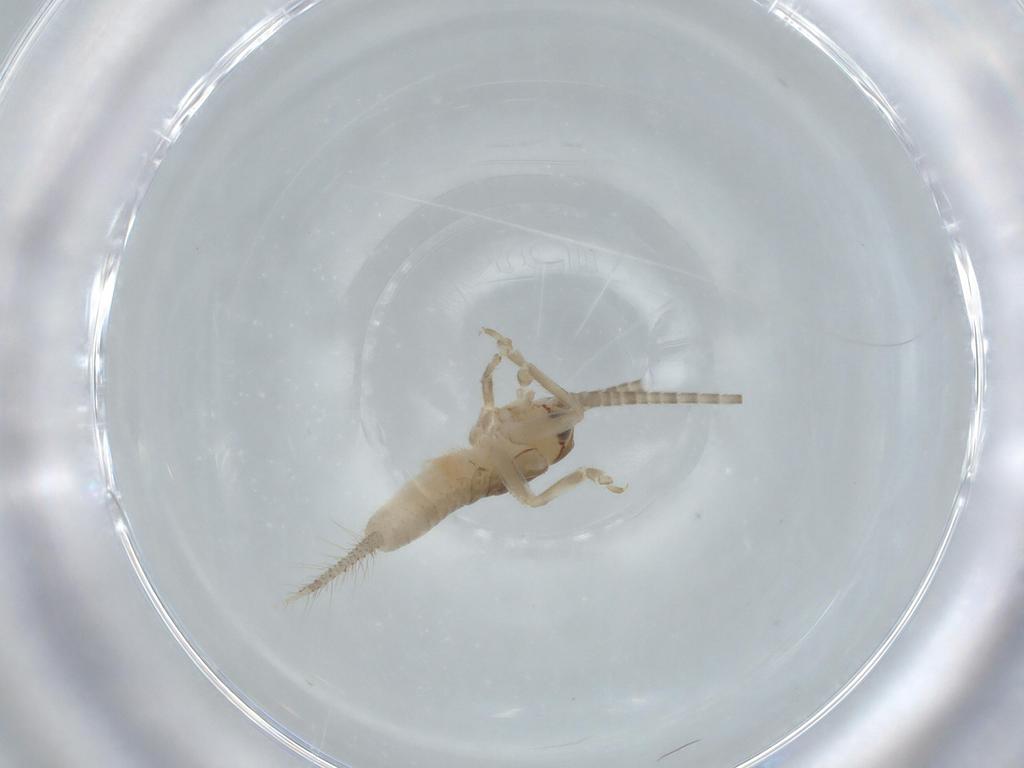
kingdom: Animalia
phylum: Arthropoda
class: Insecta
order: Orthoptera
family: Gryllidae
